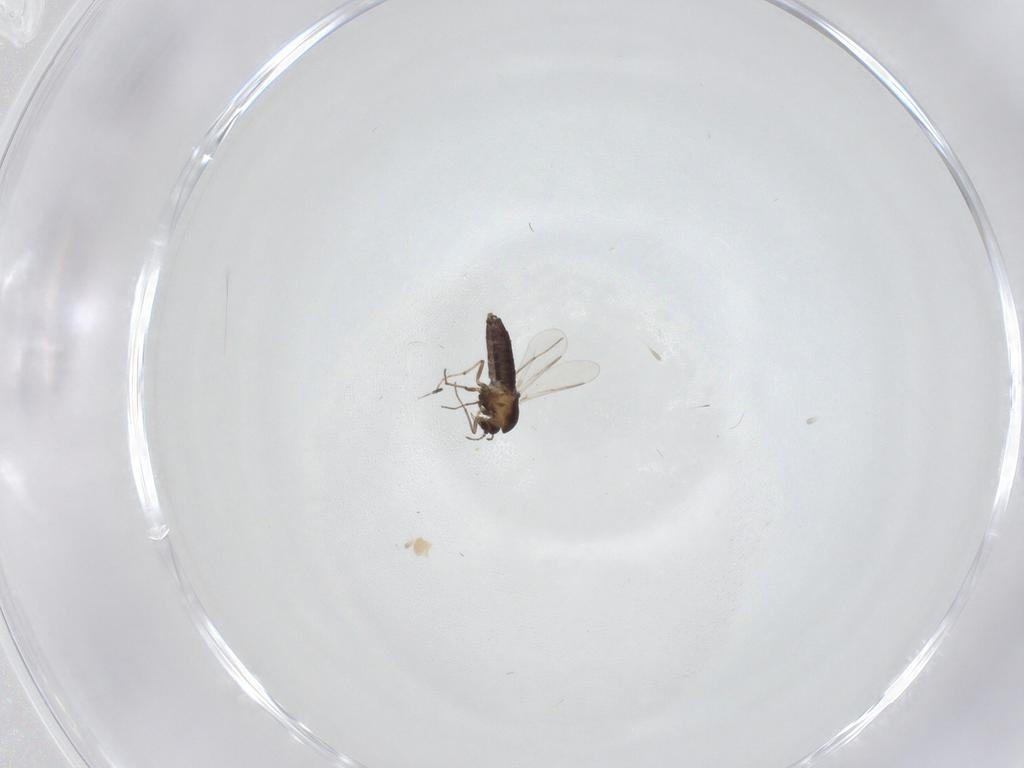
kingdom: Animalia
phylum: Arthropoda
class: Insecta
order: Diptera
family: Chironomidae
